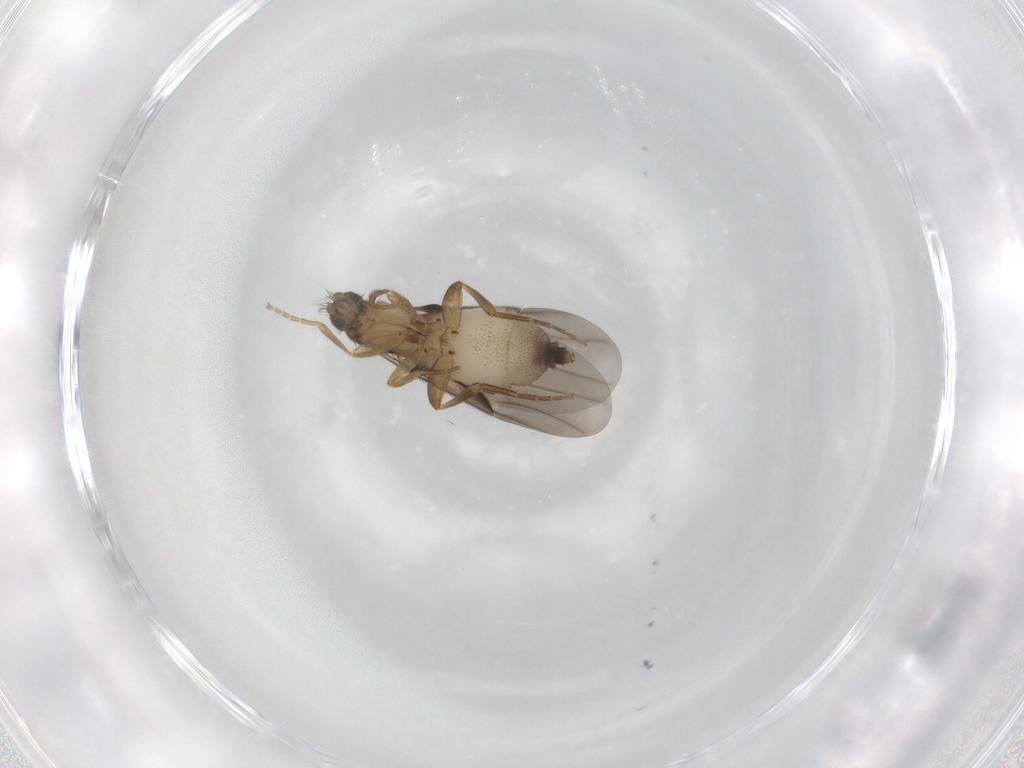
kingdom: Animalia
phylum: Arthropoda
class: Insecta
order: Diptera
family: Phoridae
